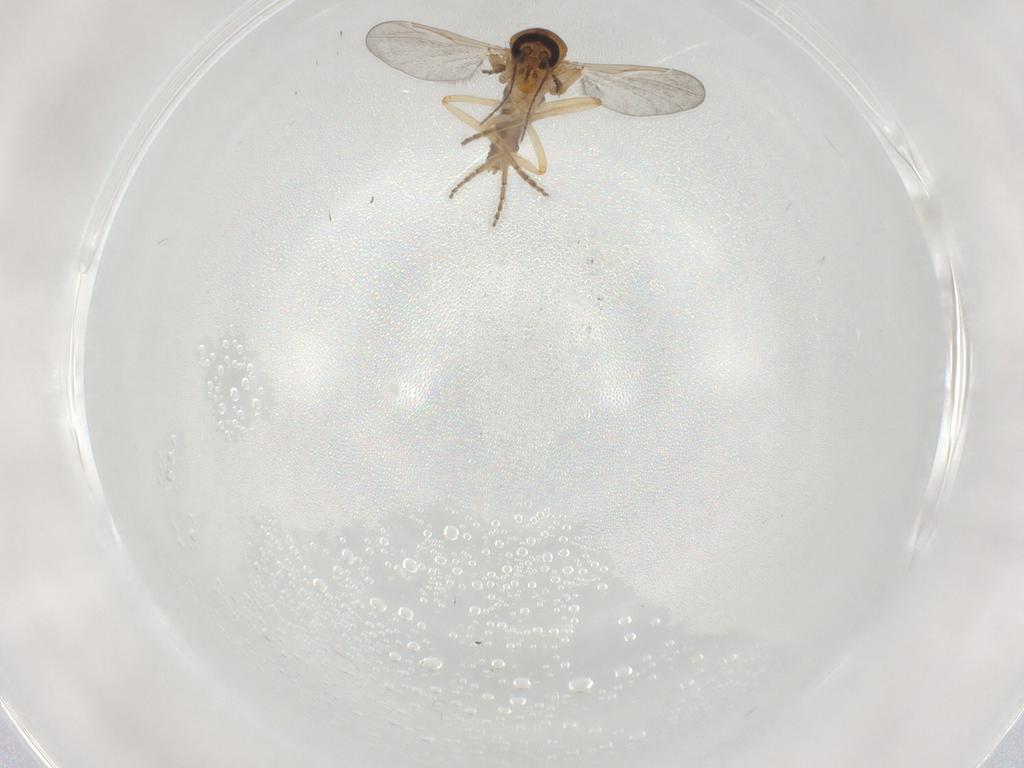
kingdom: Animalia
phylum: Arthropoda
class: Insecta
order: Diptera
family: Ceratopogonidae
